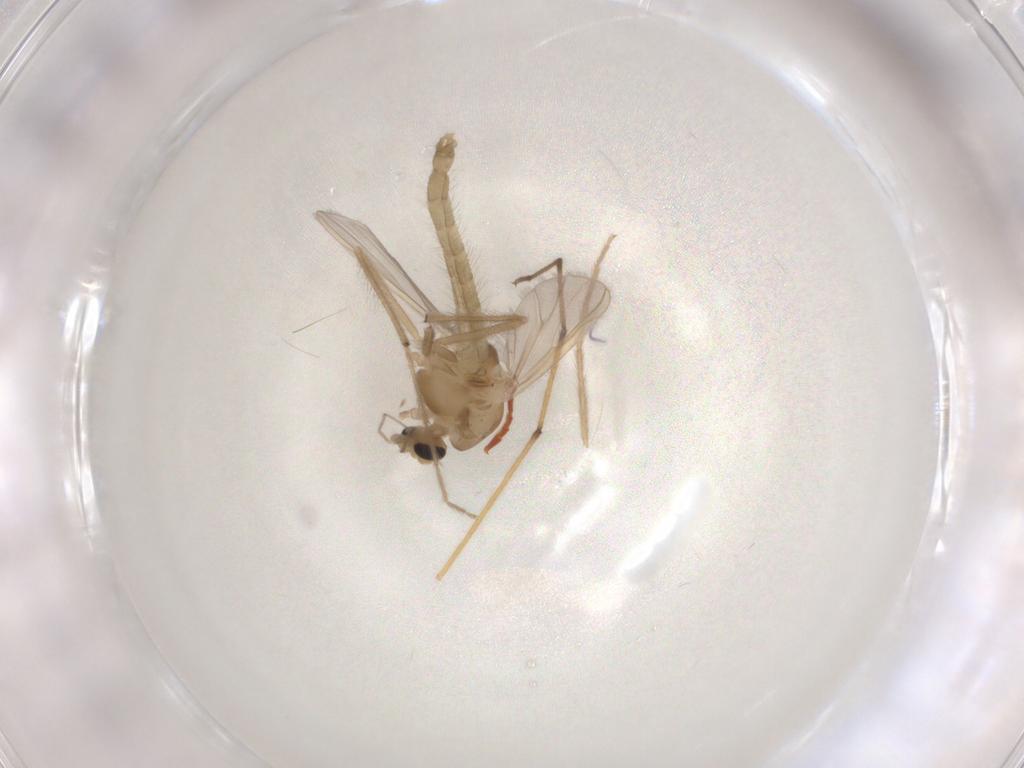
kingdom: Animalia
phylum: Arthropoda
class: Insecta
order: Diptera
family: Chironomidae
